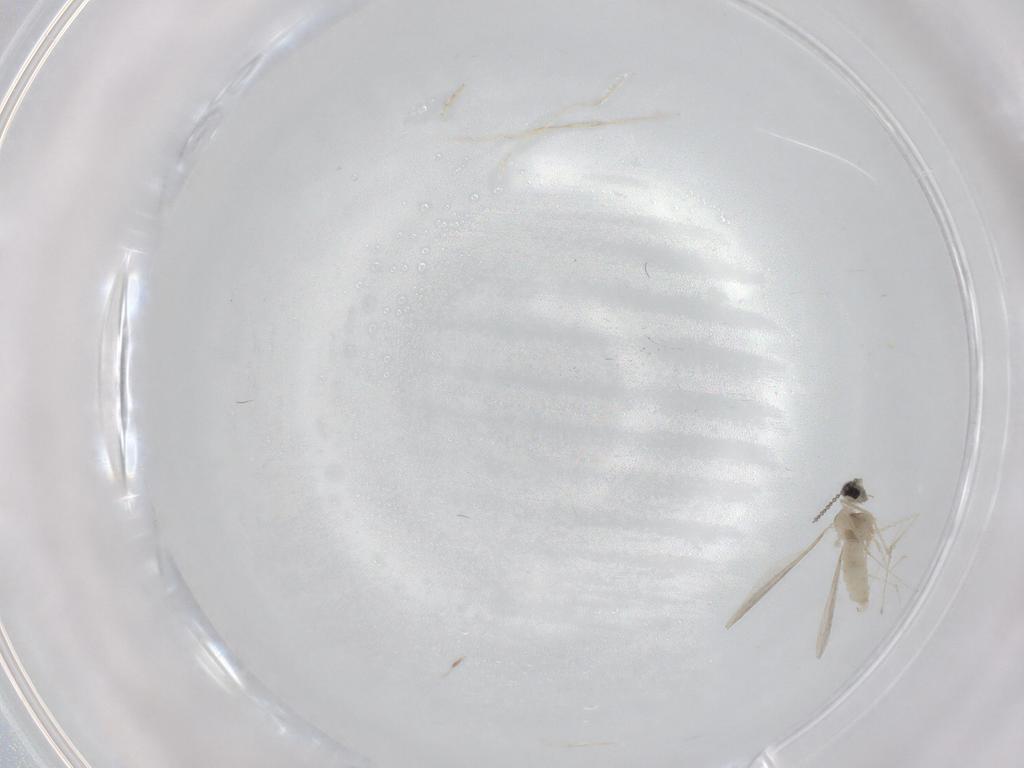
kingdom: Animalia
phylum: Arthropoda
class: Insecta
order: Diptera
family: Cecidomyiidae
